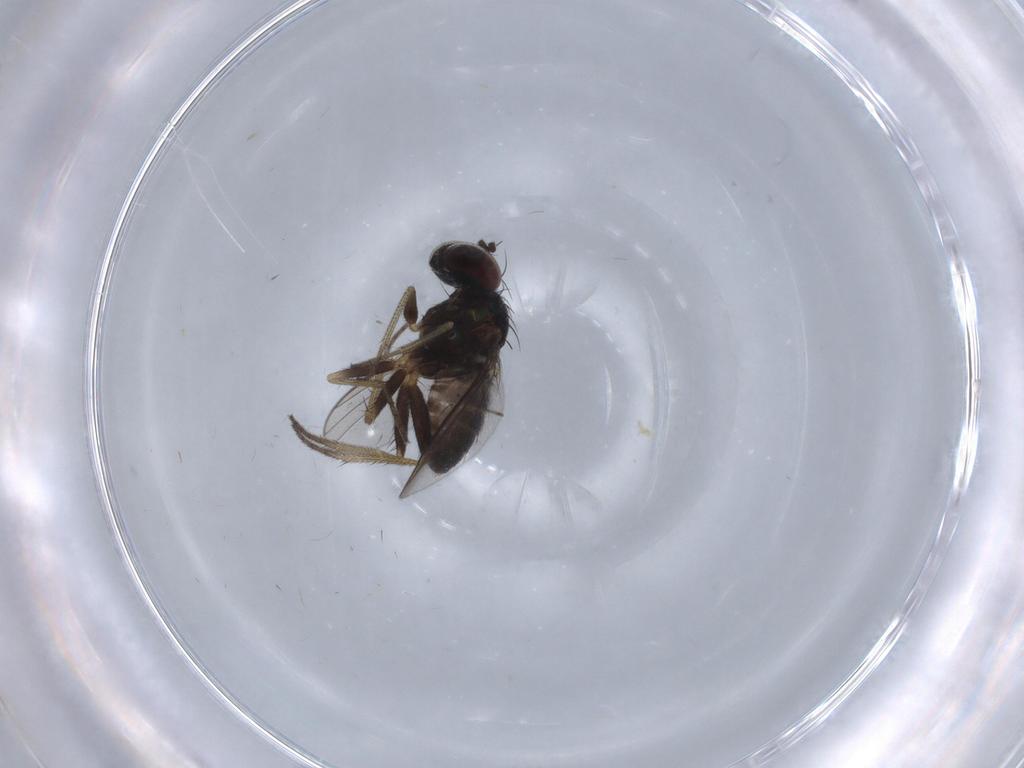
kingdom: Animalia
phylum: Arthropoda
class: Insecta
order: Diptera
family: Chironomidae
